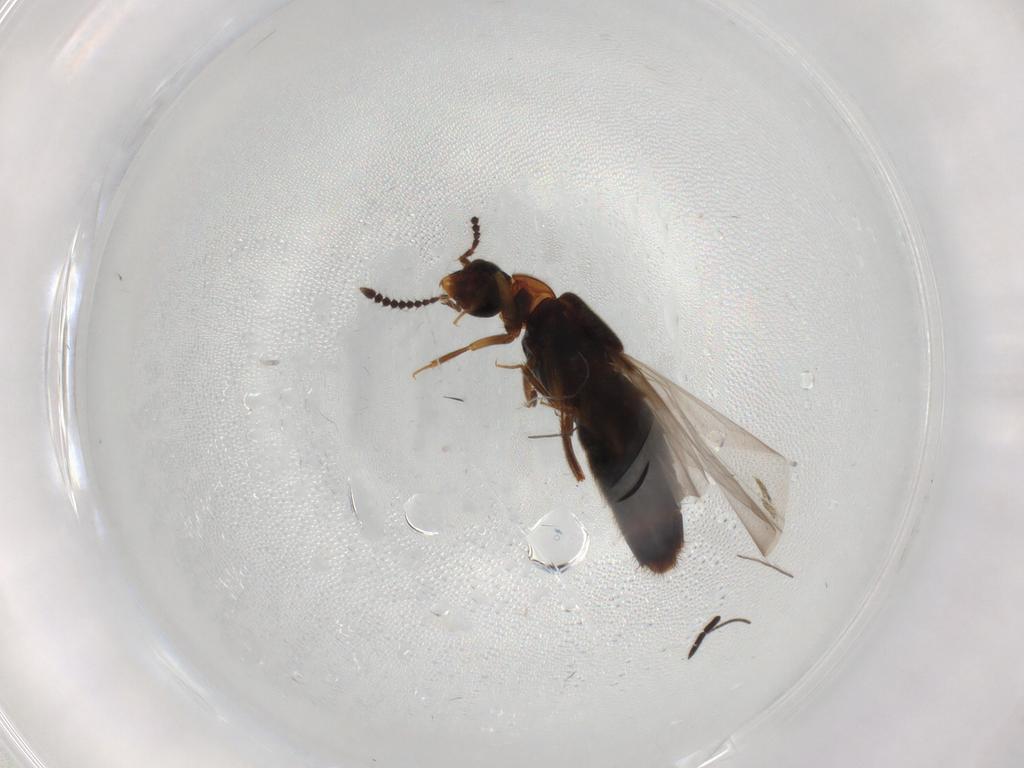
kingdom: Animalia
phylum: Arthropoda
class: Insecta
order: Coleoptera
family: Staphylinidae
